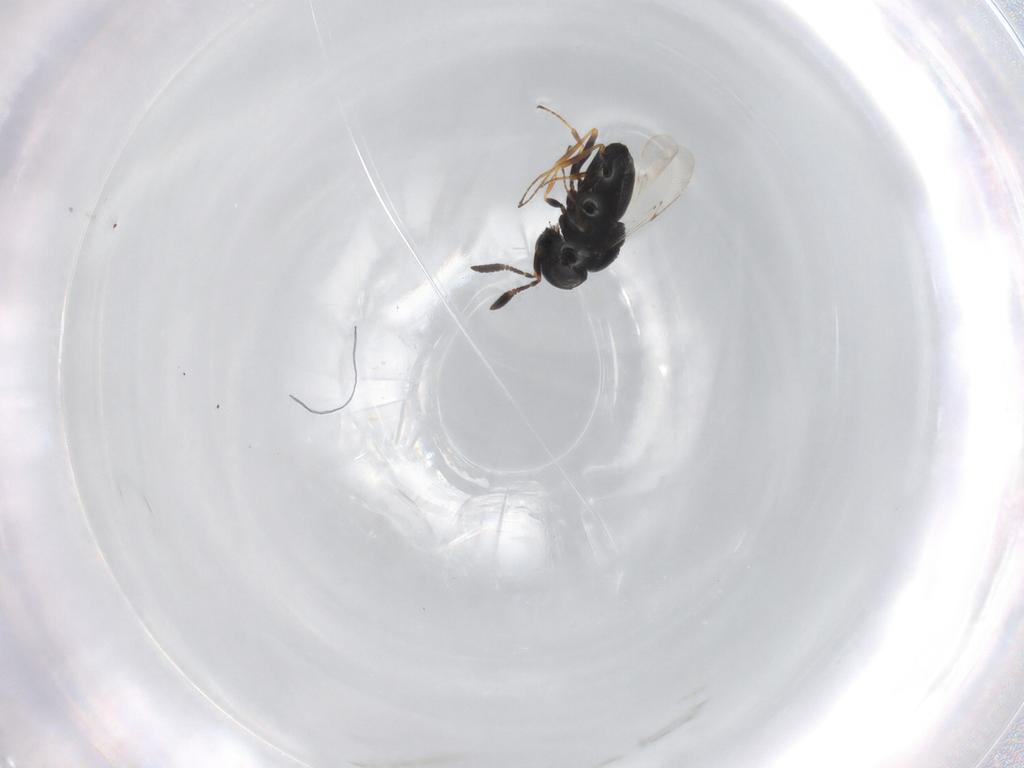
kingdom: Animalia
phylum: Arthropoda
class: Insecta
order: Hymenoptera
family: Scelionidae
